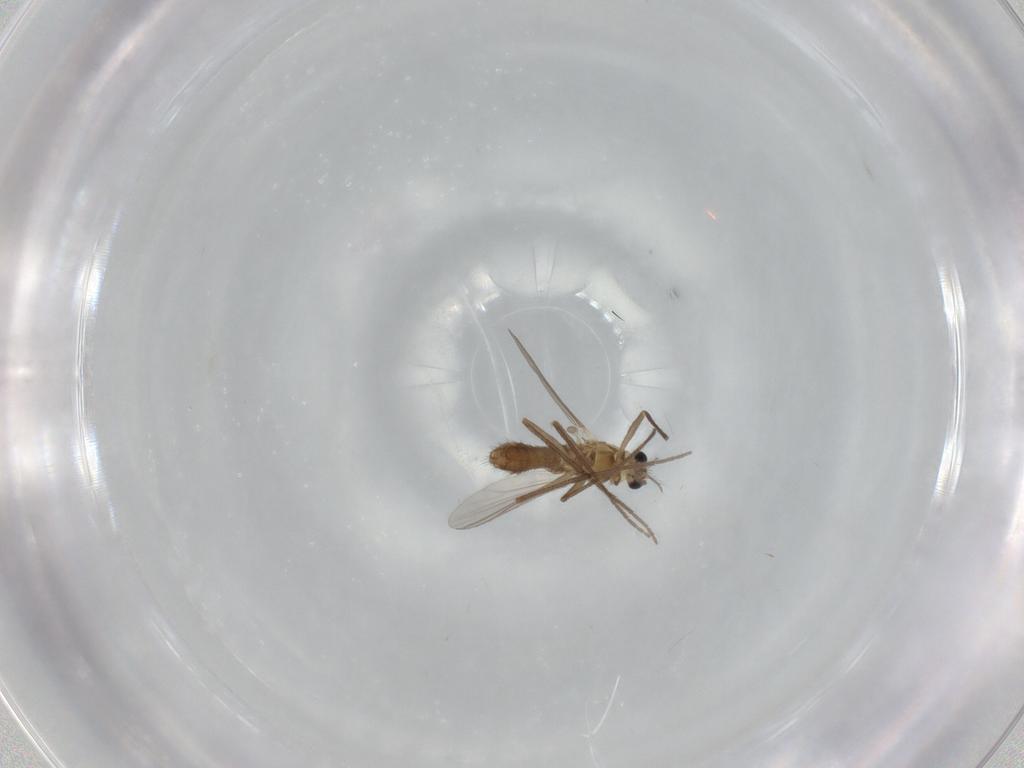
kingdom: Animalia
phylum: Arthropoda
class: Insecta
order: Diptera
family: Chironomidae
